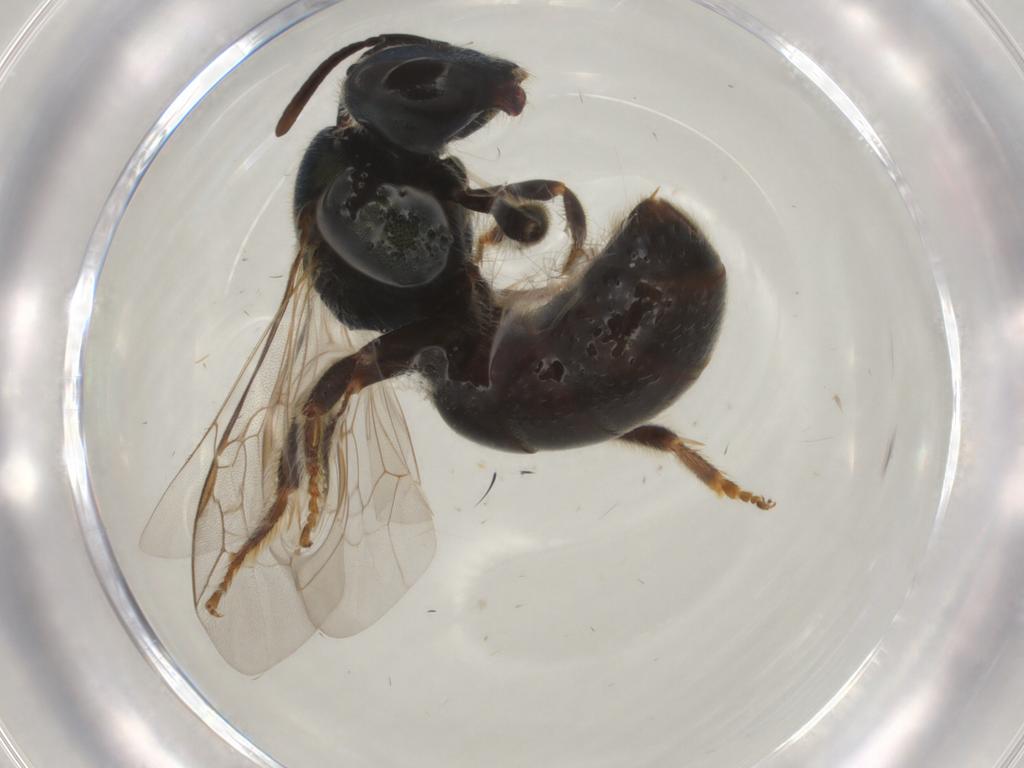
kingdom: Animalia
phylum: Arthropoda
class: Insecta
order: Hymenoptera
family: Halictidae
